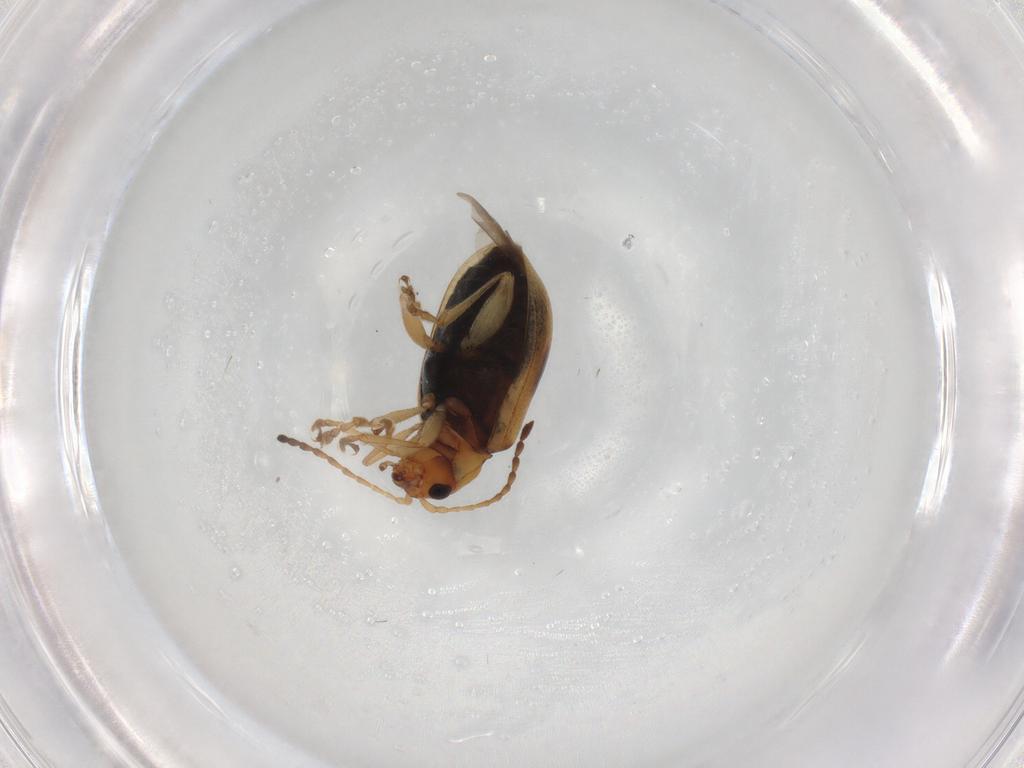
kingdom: Animalia
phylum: Arthropoda
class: Insecta
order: Coleoptera
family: Chrysomelidae
